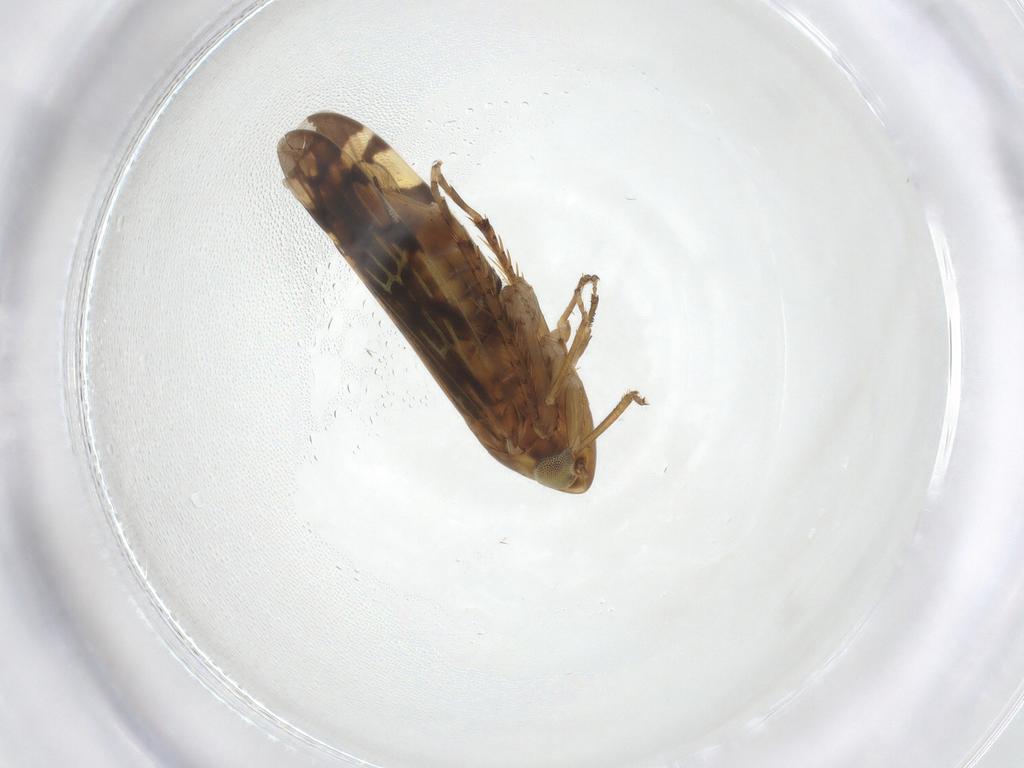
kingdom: Animalia
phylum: Arthropoda
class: Insecta
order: Hemiptera
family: Cicadellidae
